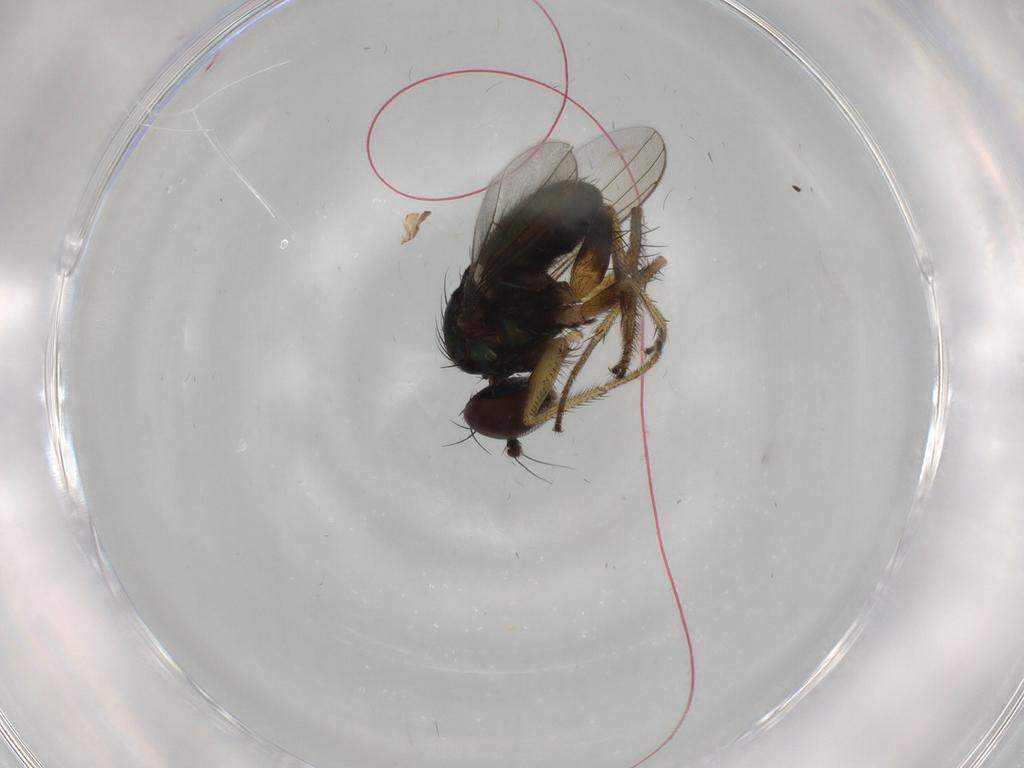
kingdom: Animalia
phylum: Arthropoda
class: Insecta
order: Diptera
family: Dolichopodidae
